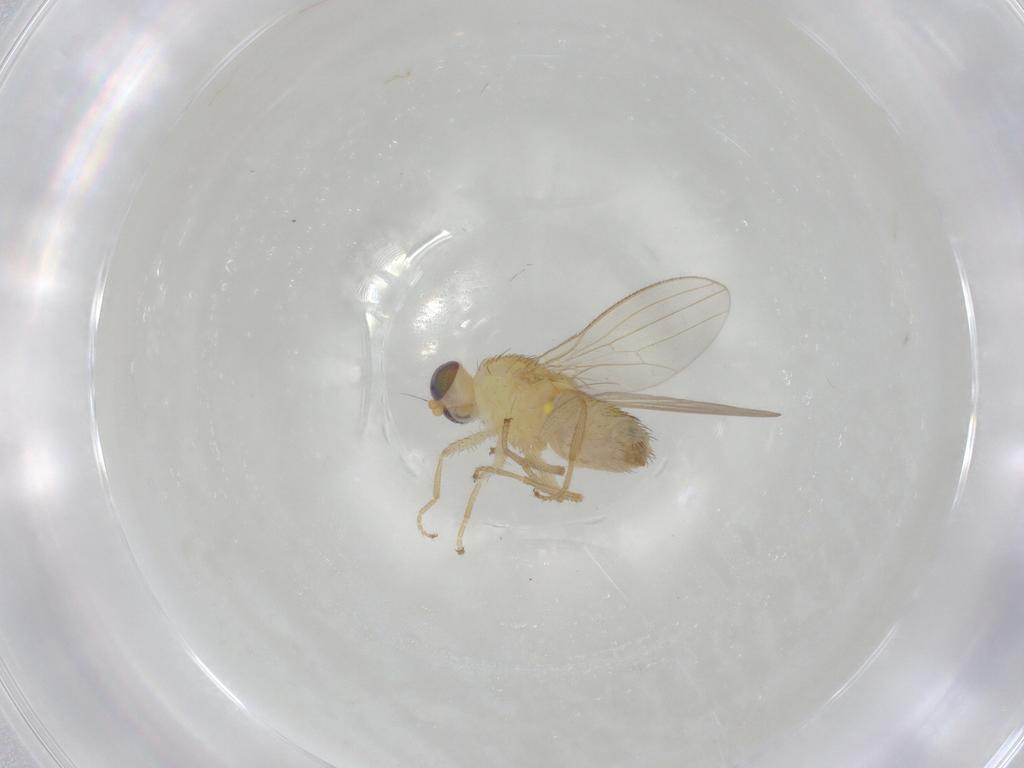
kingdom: Animalia
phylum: Arthropoda
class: Insecta
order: Diptera
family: Chyromyidae
